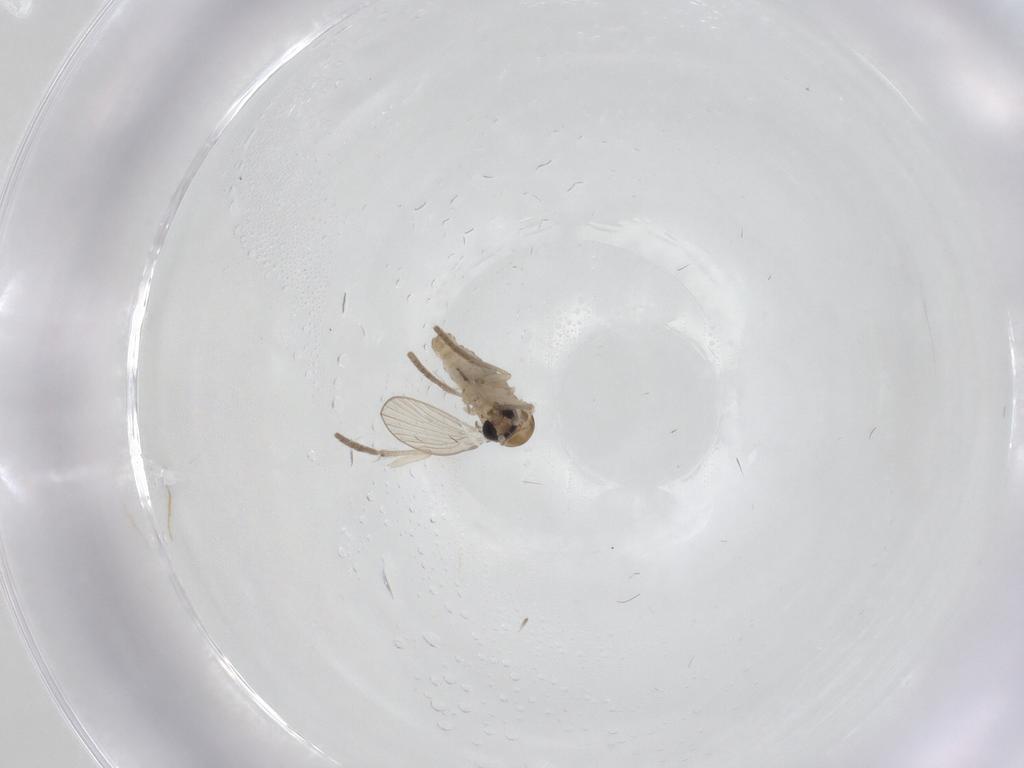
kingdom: Animalia
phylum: Arthropoda
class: Insecta
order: Diptera
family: Psychodidae
